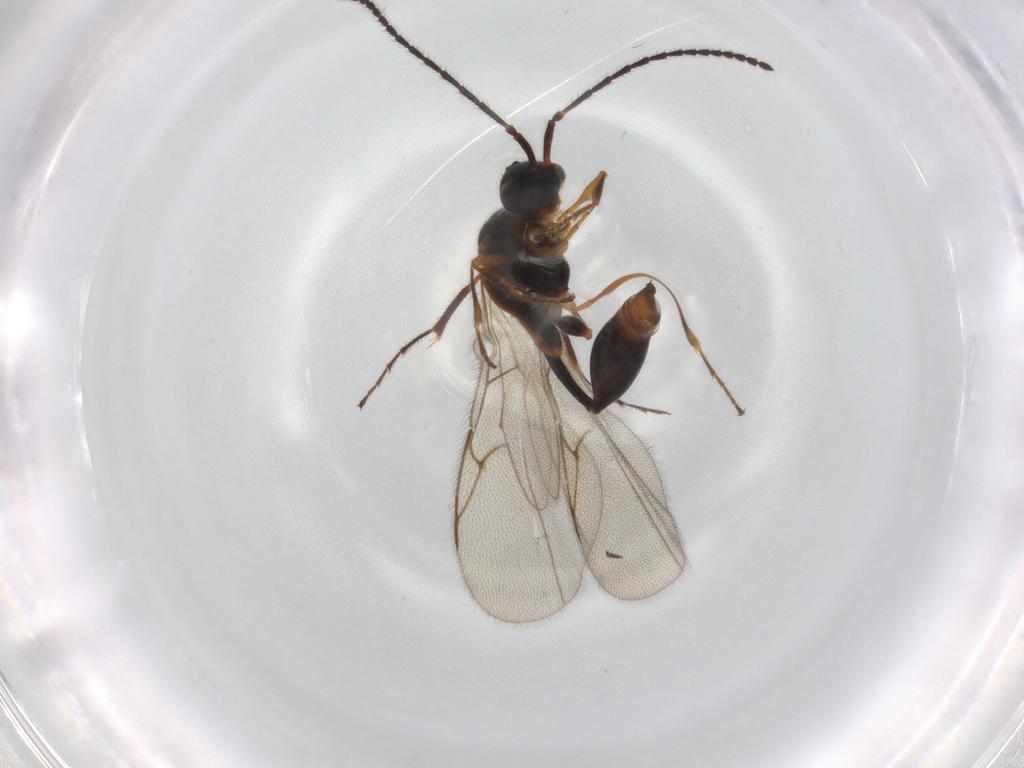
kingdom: Animalia
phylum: Arthropoda
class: Insecta
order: Hymenoptera
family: Diapriidae
